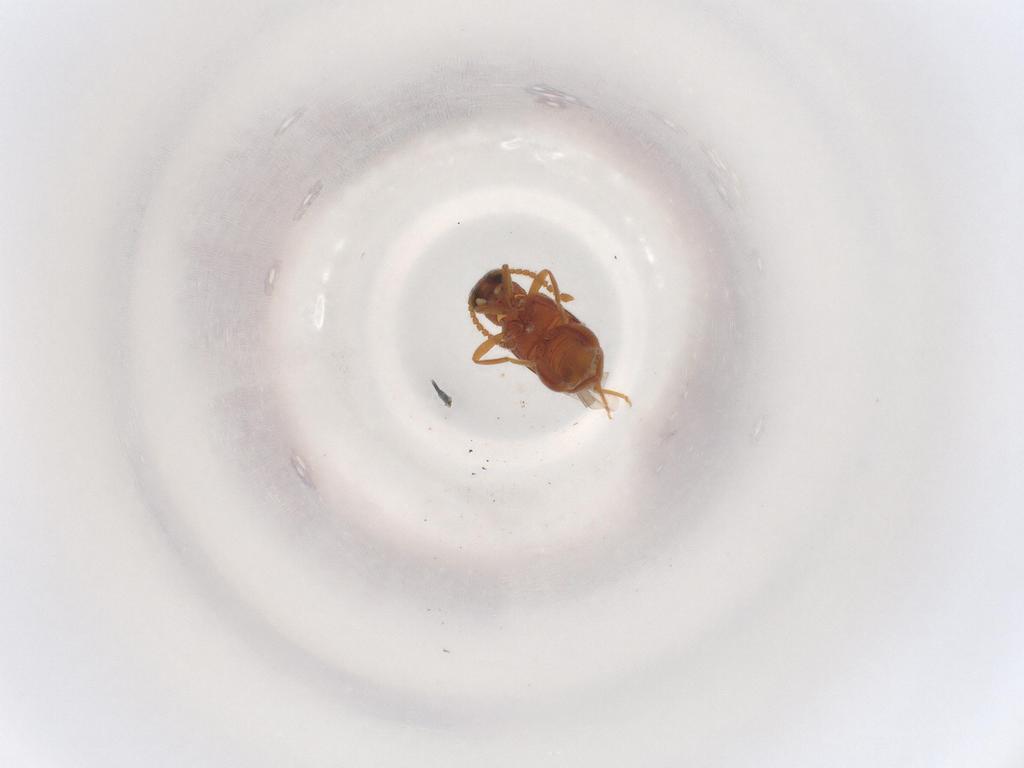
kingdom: Animalia
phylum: Arthropoda
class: Insecta
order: Coleoptera
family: Aderidae
